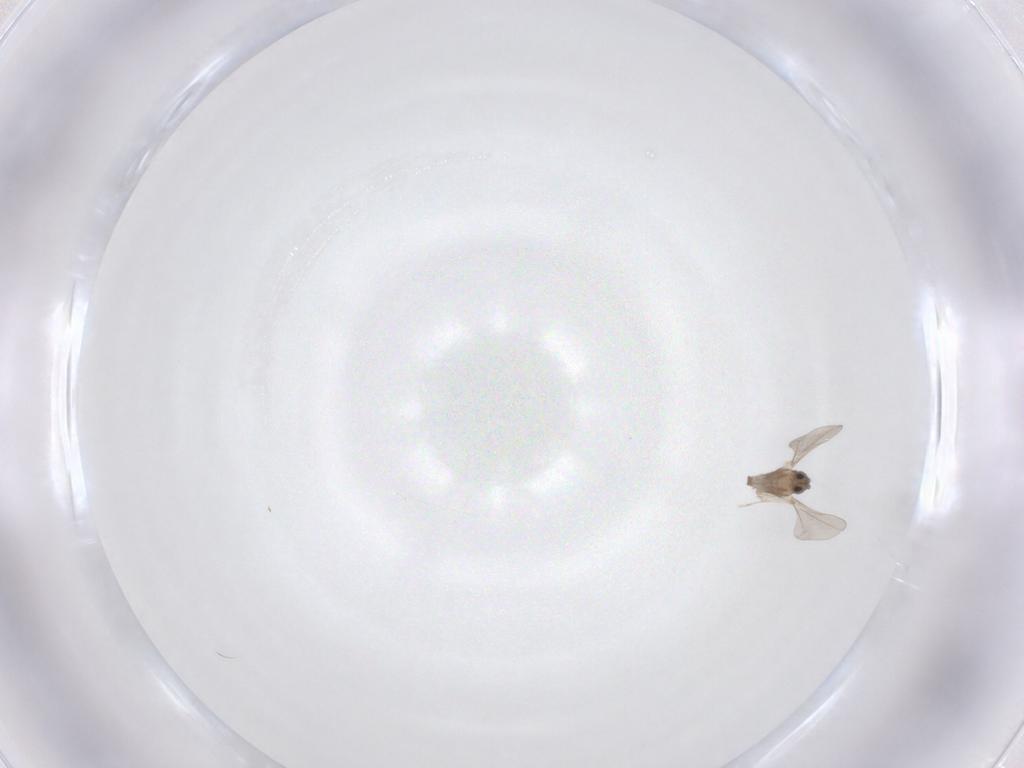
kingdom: Animalia
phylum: Arthropoda
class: Insecta
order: Diptera
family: Cecidomyiidae
